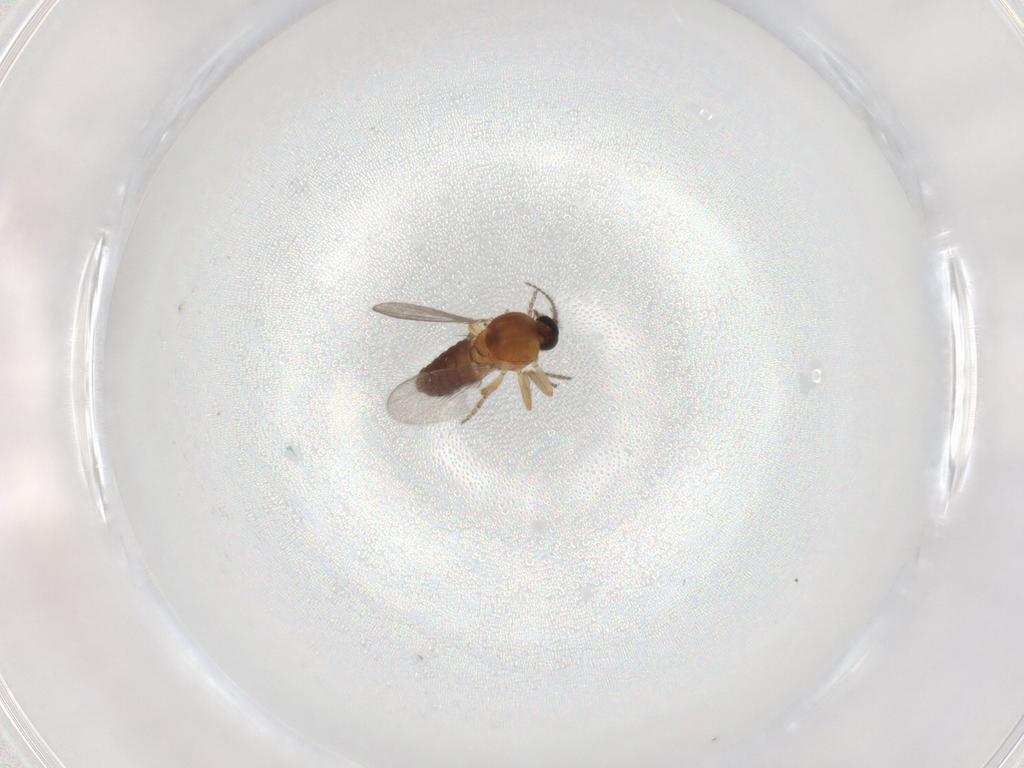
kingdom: Animalia
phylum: Arthropoda
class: Insecta
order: Diptera
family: Ceratopogonidae
